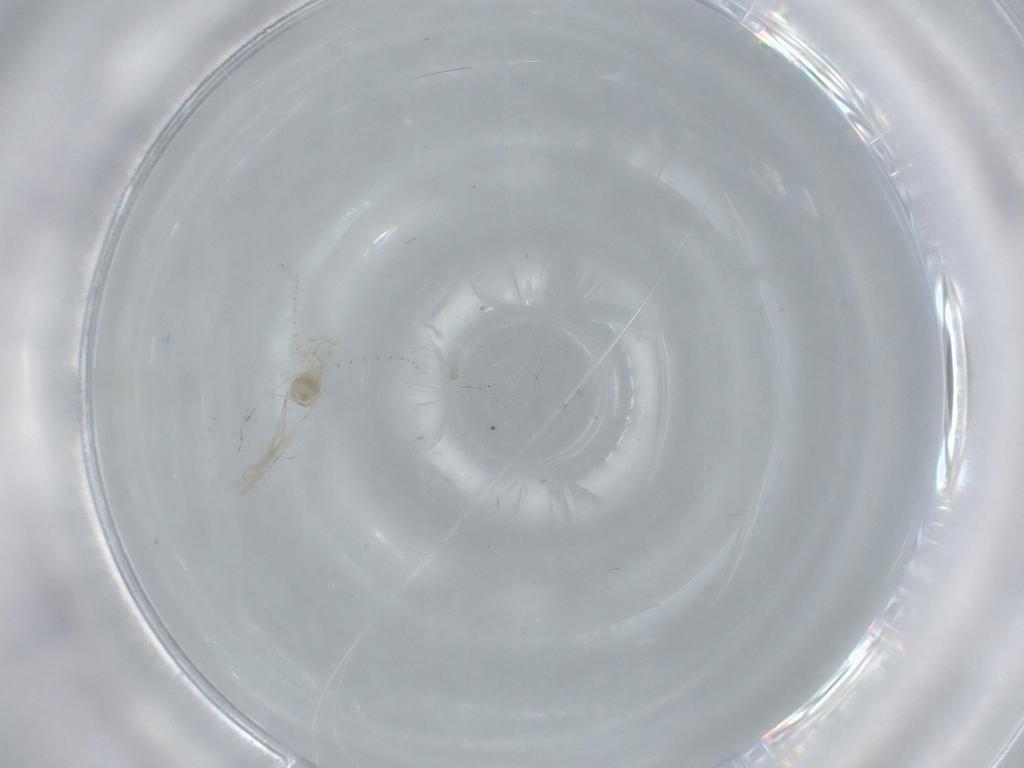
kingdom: Animalia
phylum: Arthropoda
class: Insecta
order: Diptera
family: Cecidomyiidae
